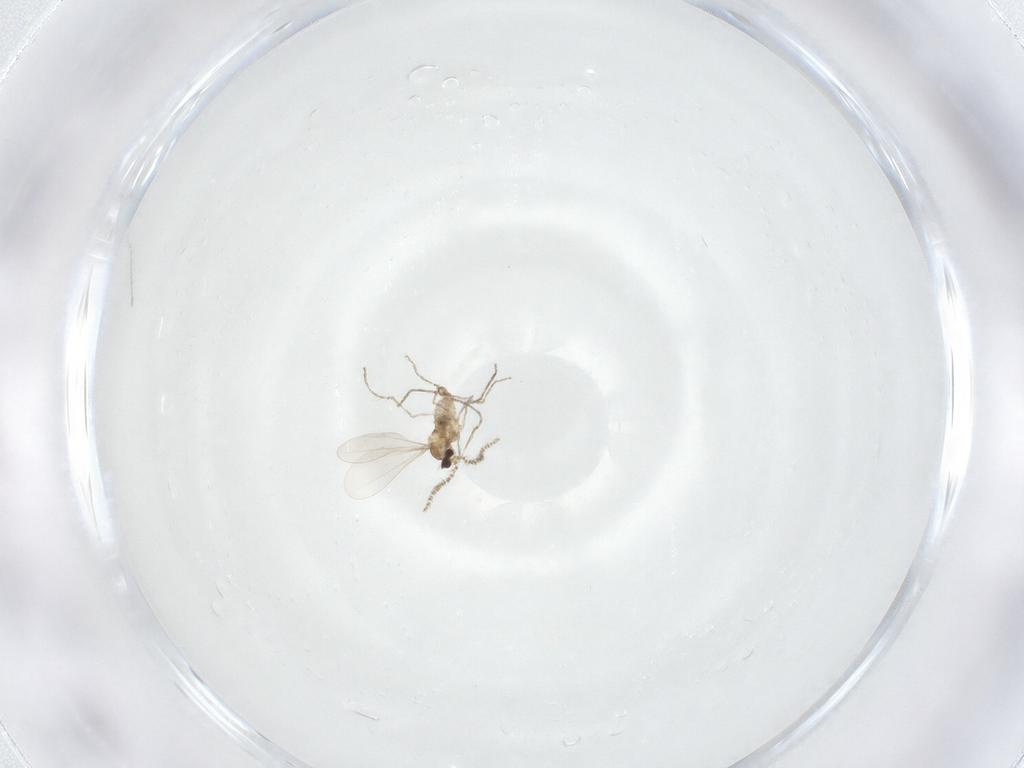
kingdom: Animalia
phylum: Arthropoda
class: Insecta
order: Diptera
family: Cecidomyiidae
